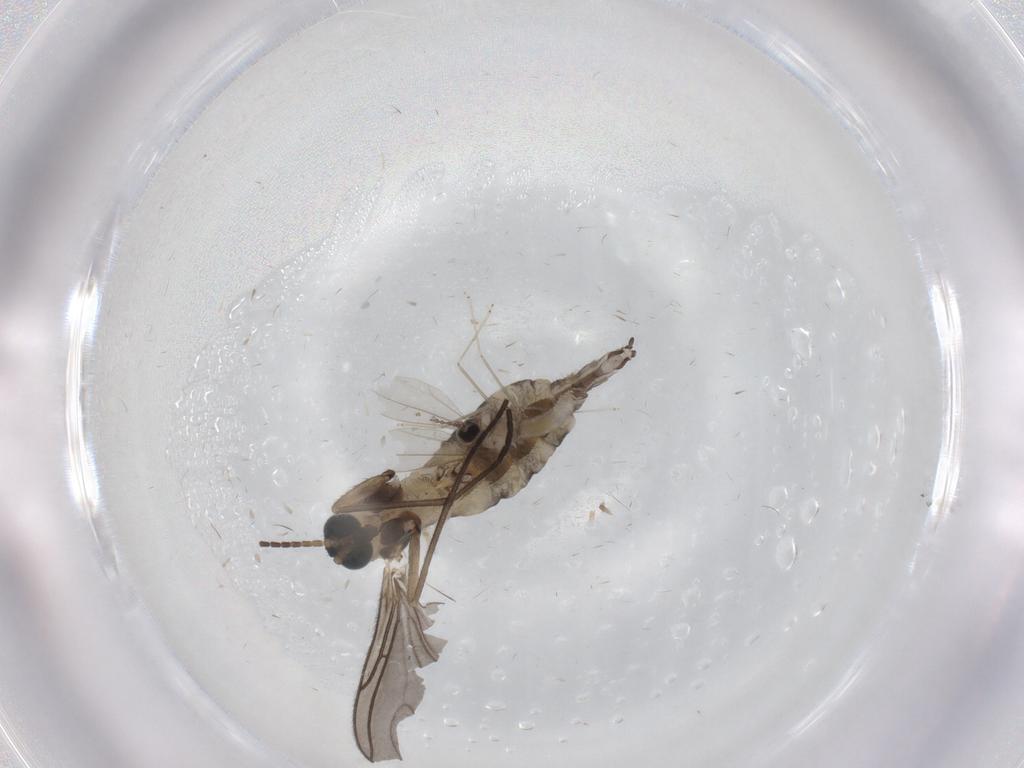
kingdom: Animalia
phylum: Arthropoda
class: Insecta
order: Diptera
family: Sciaridae
